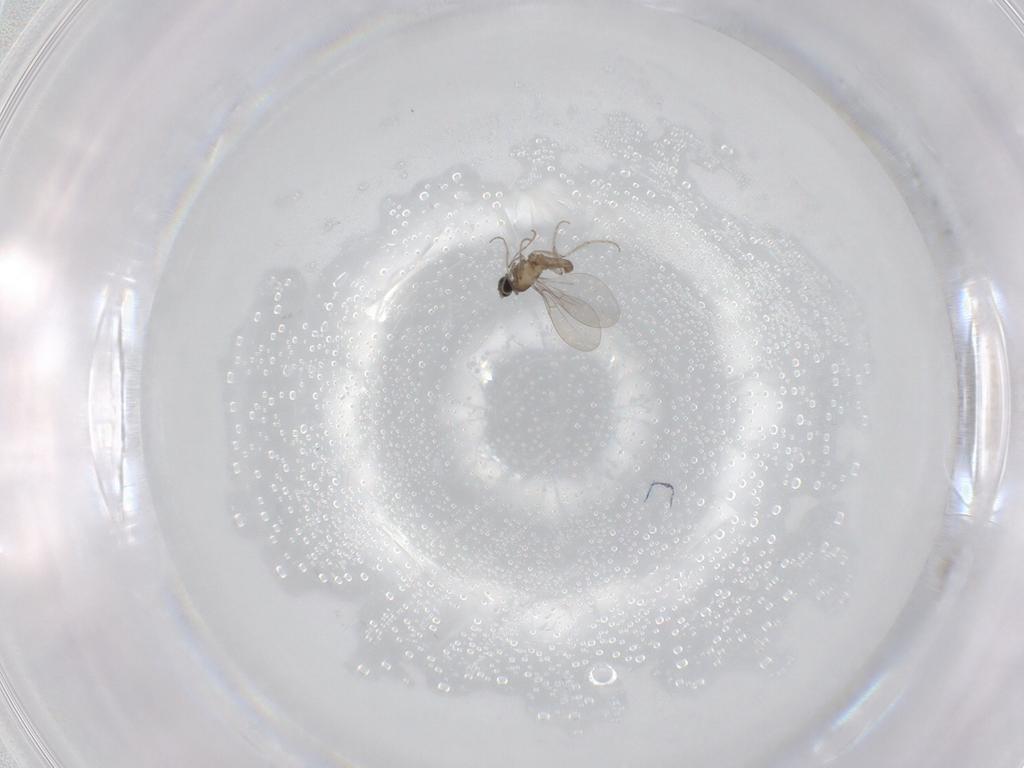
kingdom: Animalia
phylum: Arthropoda
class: Insecta
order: Diptera
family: Cecidomyiidae
